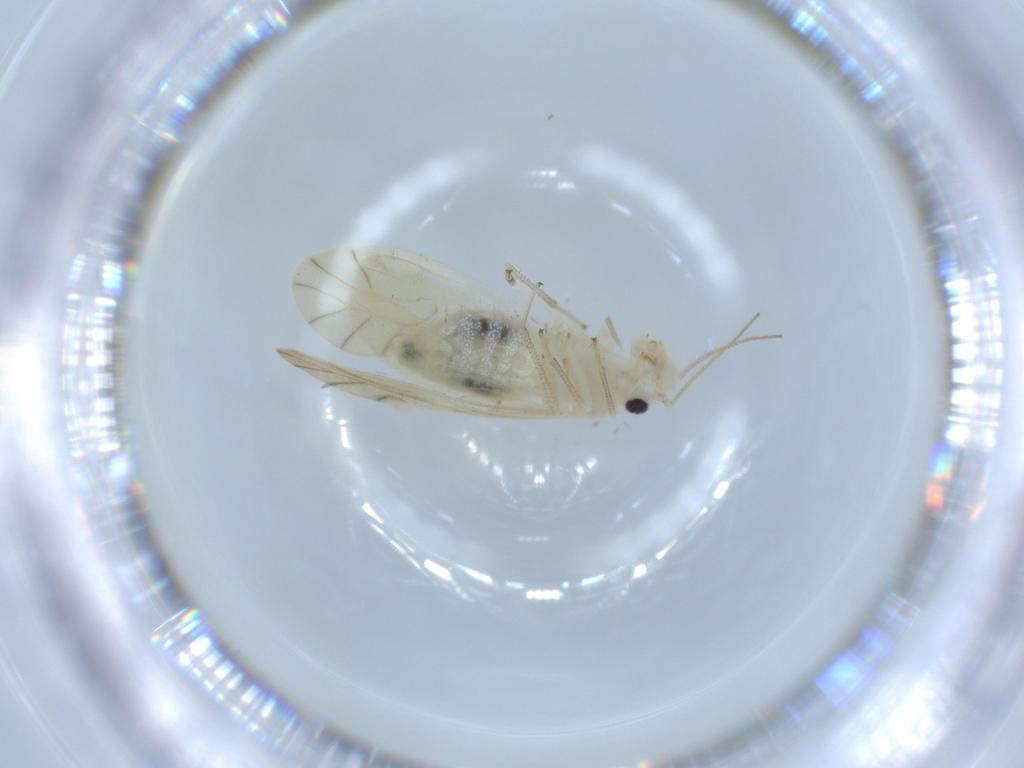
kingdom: Animalia
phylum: Arthropoda
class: Insecta
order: Psocodea
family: Caeciliusidae
